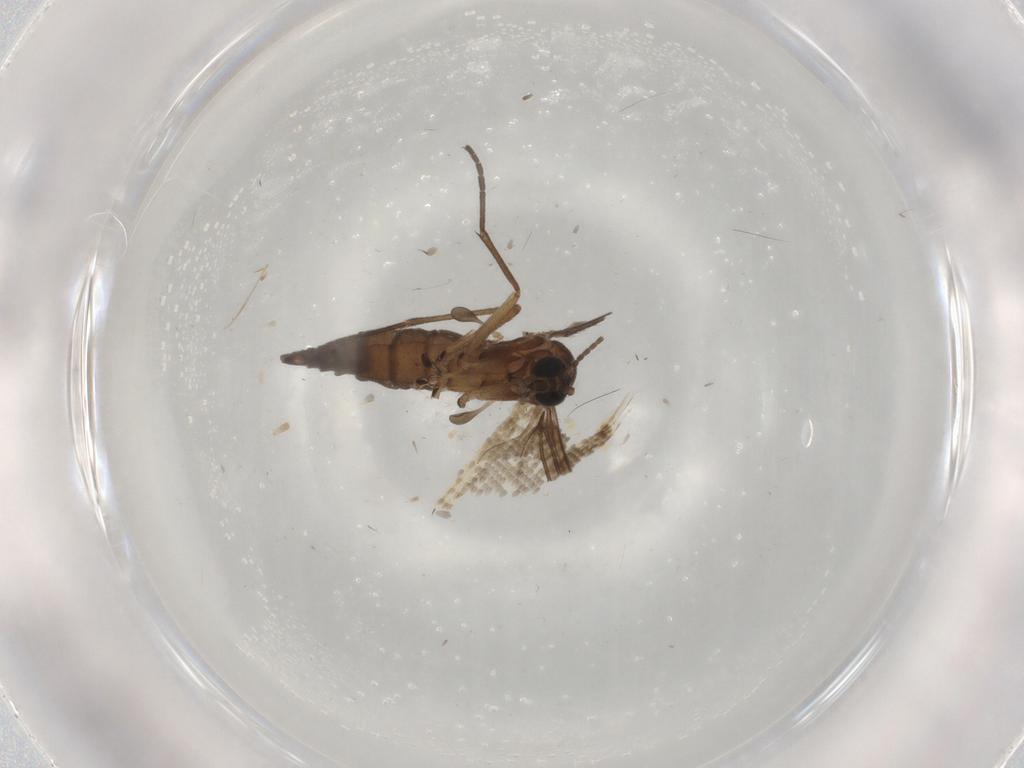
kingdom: Animalia
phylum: Arthropoda
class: Insecta
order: Diptera
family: Sciaridae
